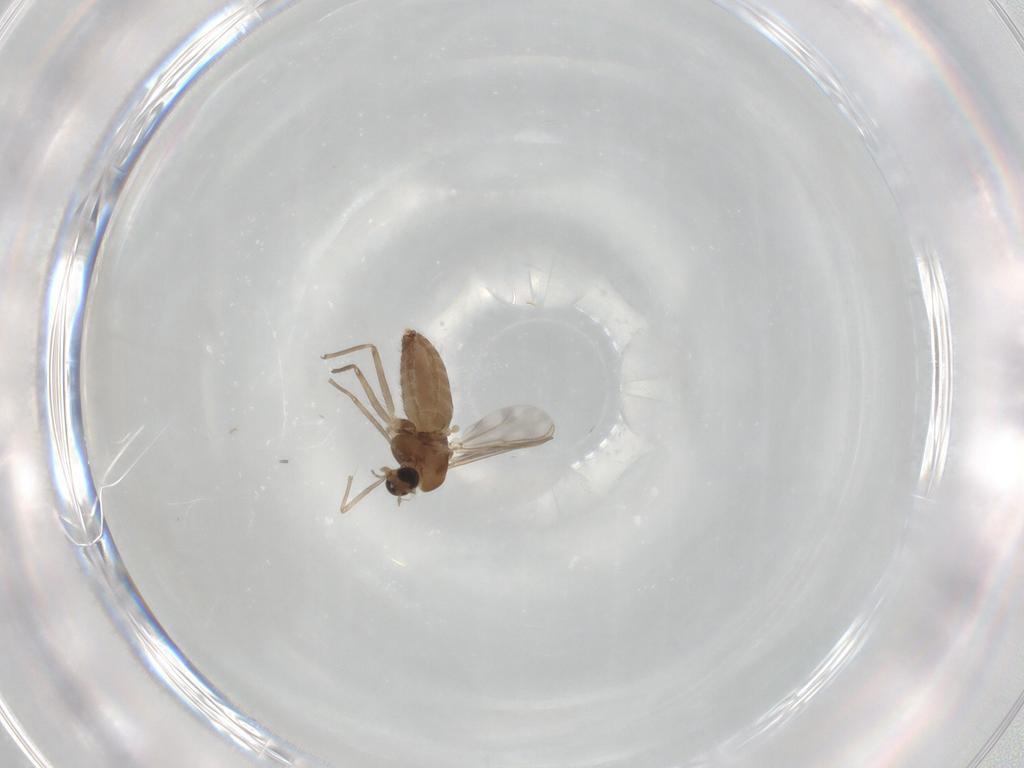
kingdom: Animalia
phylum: Arthropoda
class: Insecta
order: Diptera
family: Chironomidae
